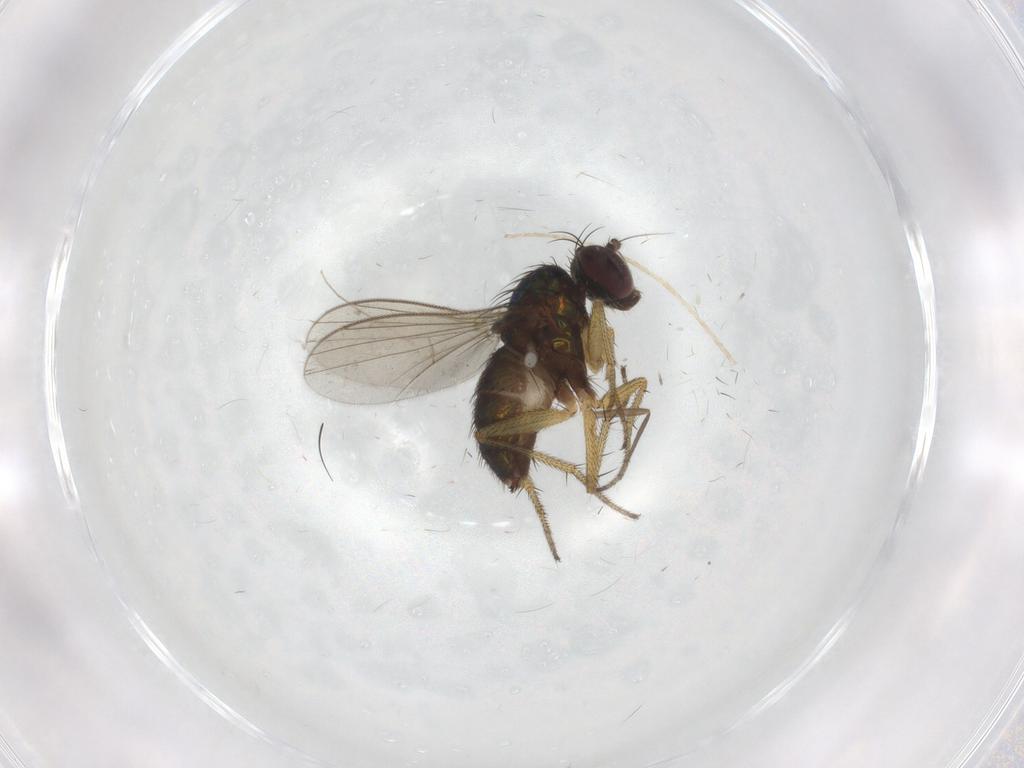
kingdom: Animalia
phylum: Arthropoda
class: Insecta
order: Diptera
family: Chironomidae
